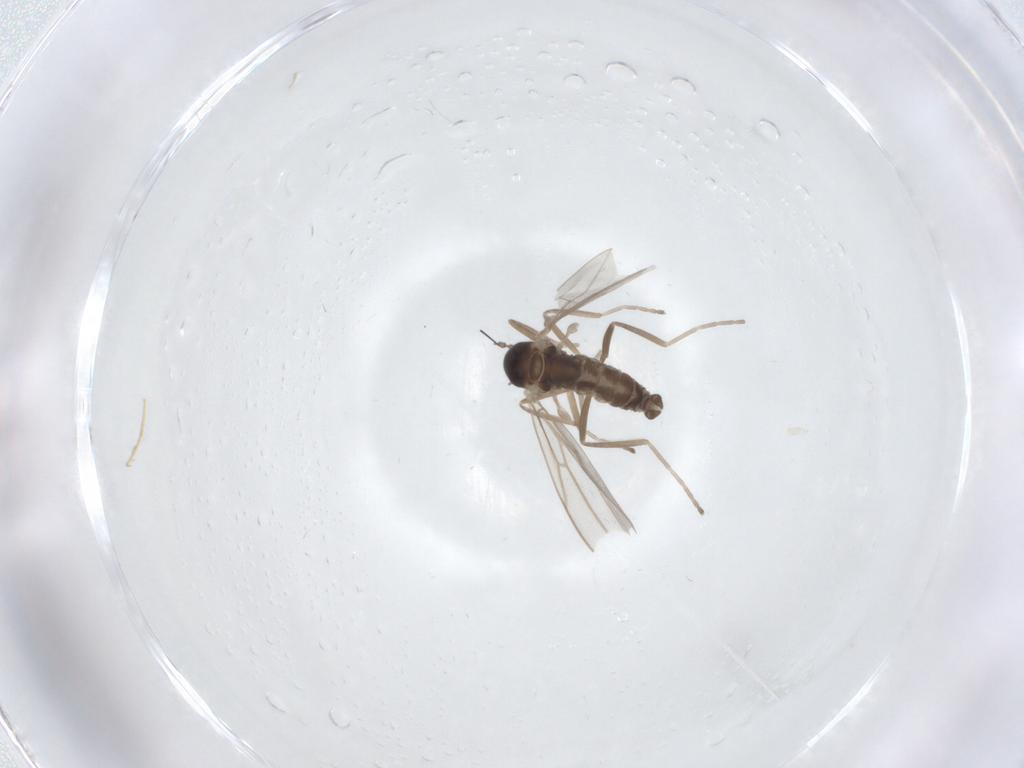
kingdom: Animalia
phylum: Arthropoda
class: Insecta
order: Diptera
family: Cecidomyiidae
